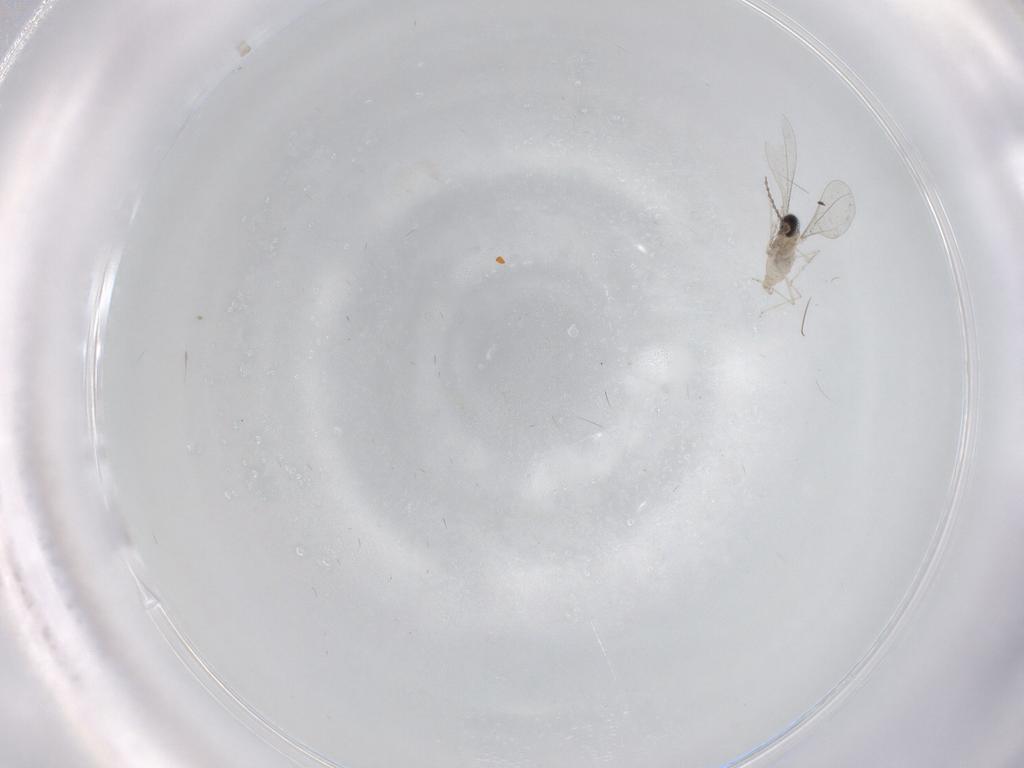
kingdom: Animalia
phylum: Arthropoda
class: Insecta
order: Diptera
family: Cecidomyiidae
